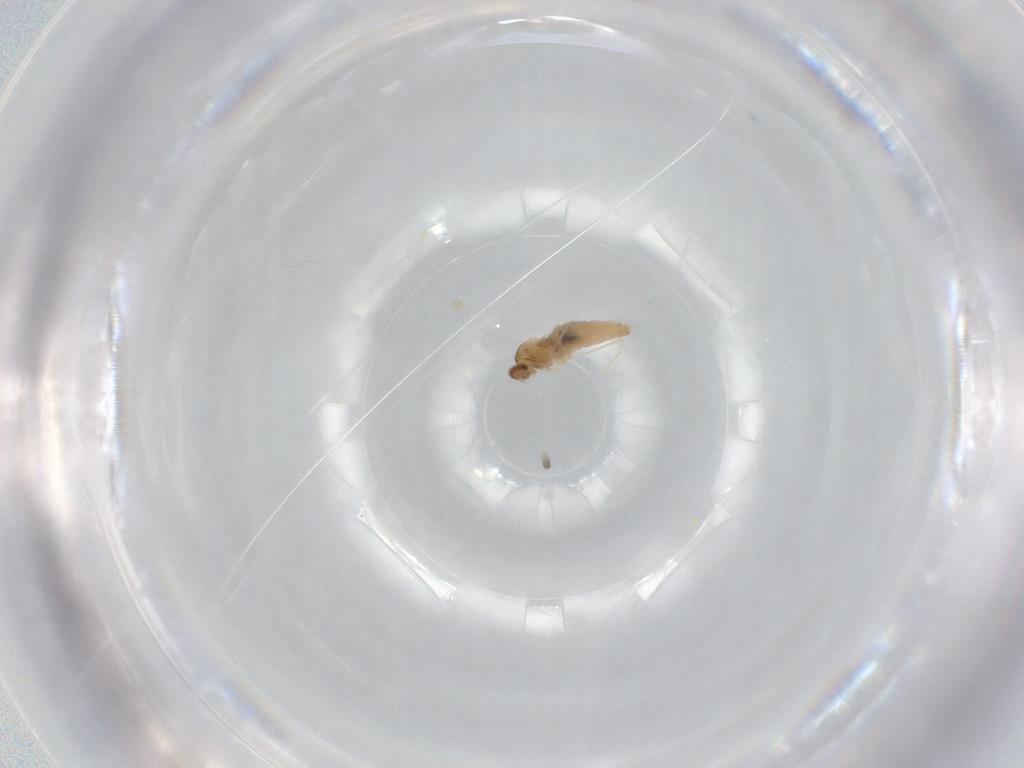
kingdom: Animalia
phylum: Arthropoda
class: Insecta
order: Diptera
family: Cecidomyiidae
